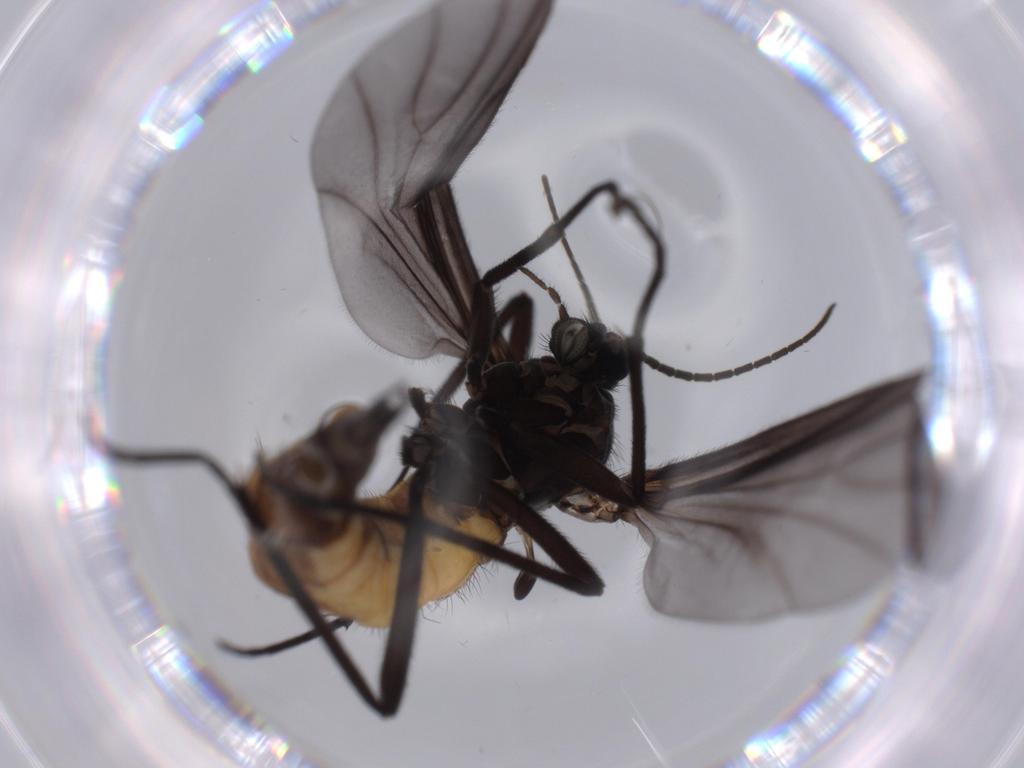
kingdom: Animalia
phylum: Arthropoda
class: Insecta
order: Diptera
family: Dolichopodidae
